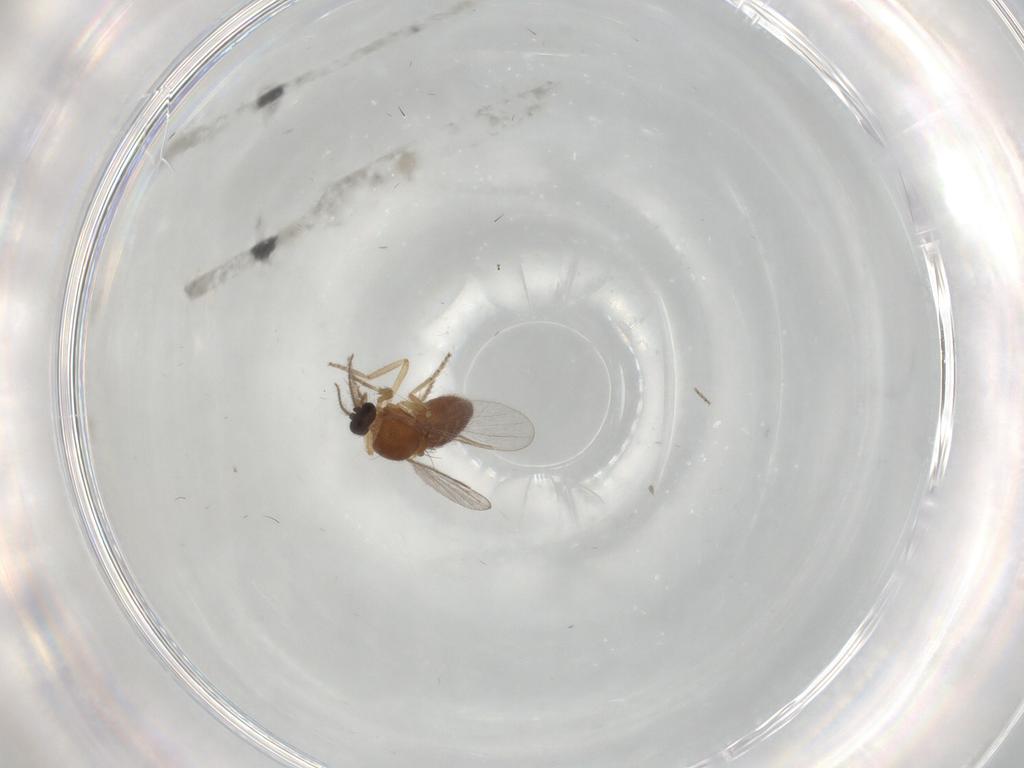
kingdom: Animalia
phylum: Arthropoda
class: Insecta
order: Diptera
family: Ceratopogonidae
